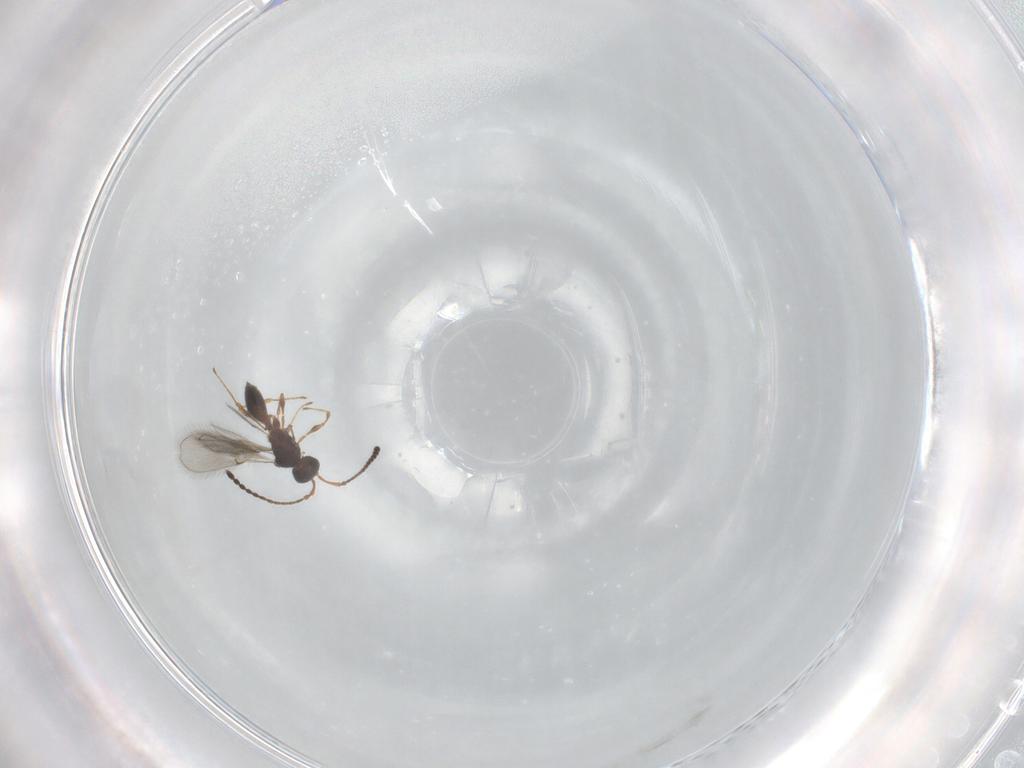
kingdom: Animalia
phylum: Arthropoda
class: Insecta
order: Hymenoptera
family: Diapriidae
